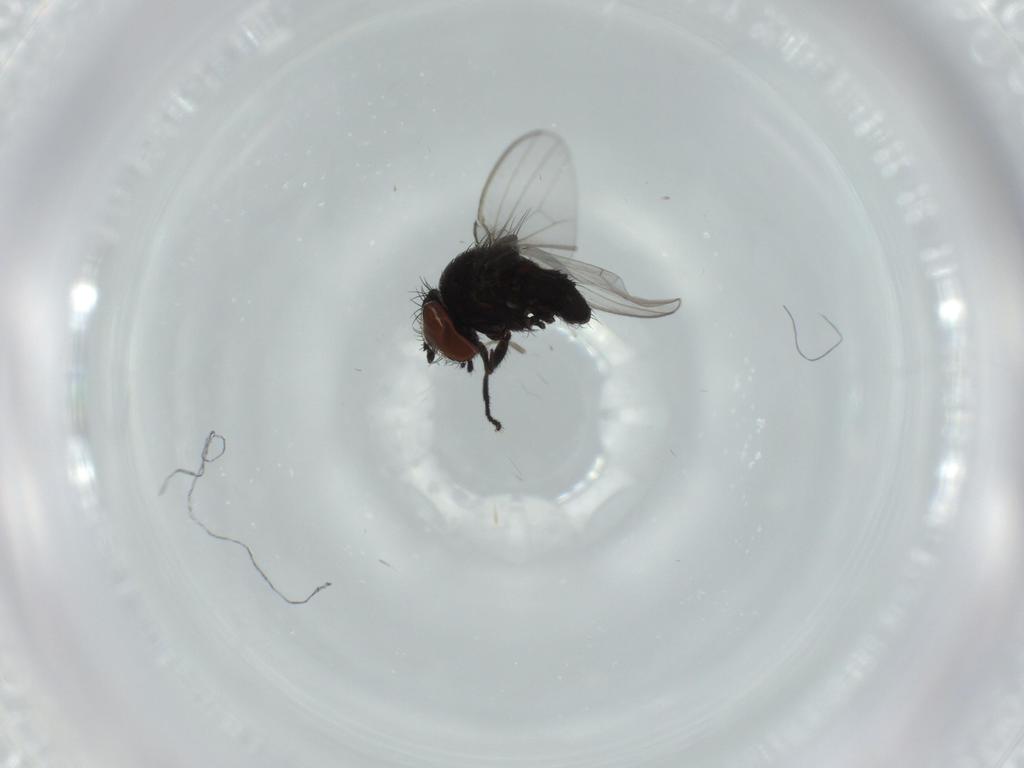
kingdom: Animalia
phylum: Arthropoda
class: Insecta
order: Diptera
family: Milichiidae
